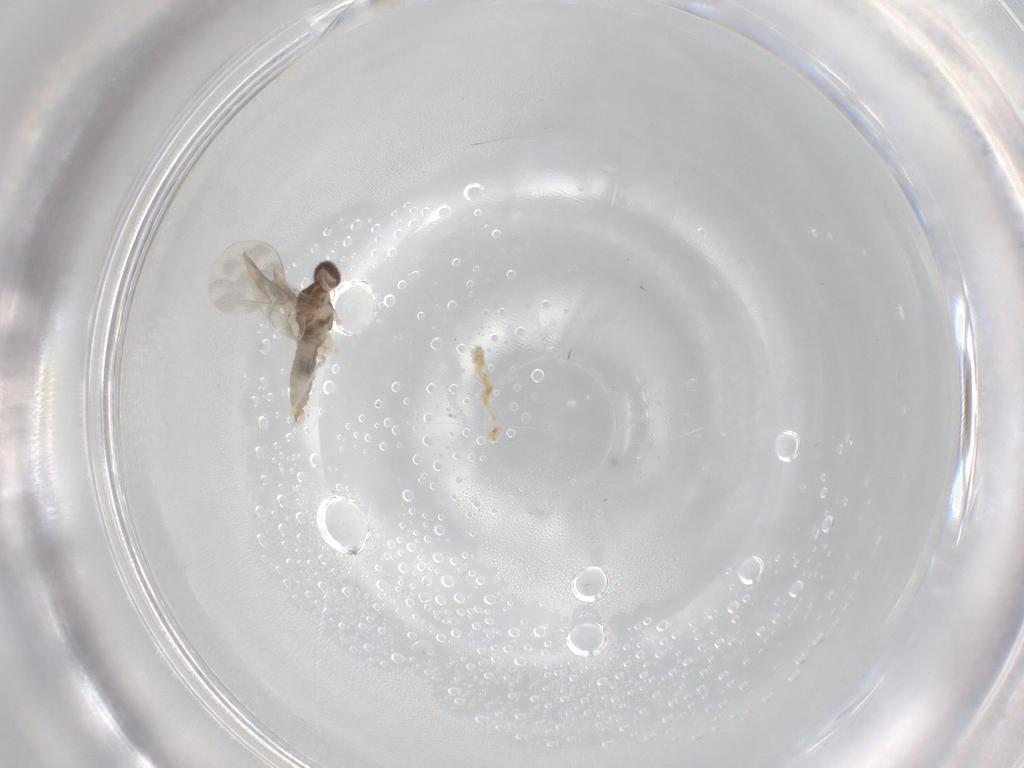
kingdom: Animalia
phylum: Arthropoda
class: Insecta
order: Diptera
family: Cecidomyiidae
